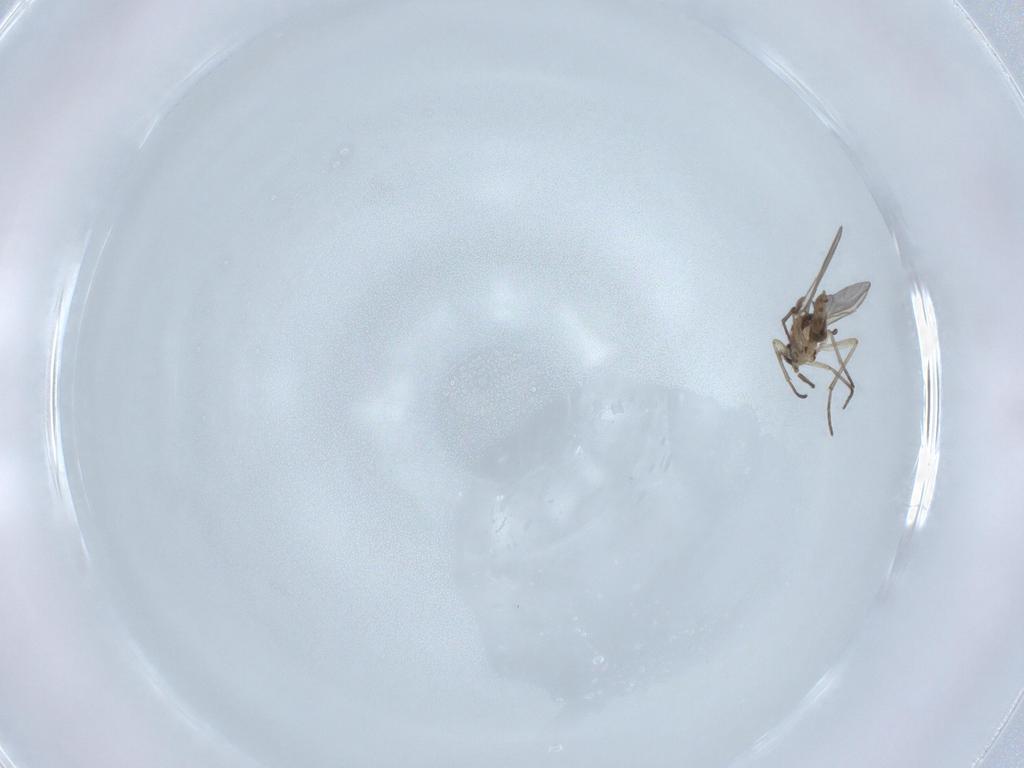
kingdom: Animalia
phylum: Arthropoda
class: Insecta
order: Diptera
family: Sciaridae
